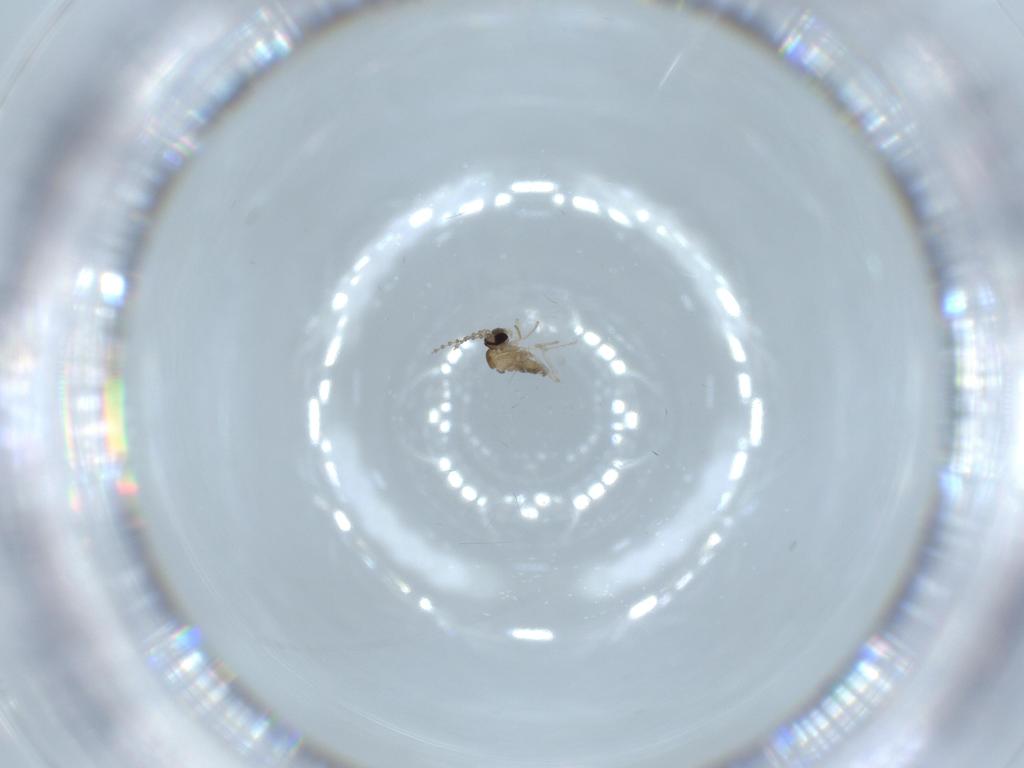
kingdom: Animalia
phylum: Arthropoda
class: Insecta
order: Diptera
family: Cecidomyiidae
